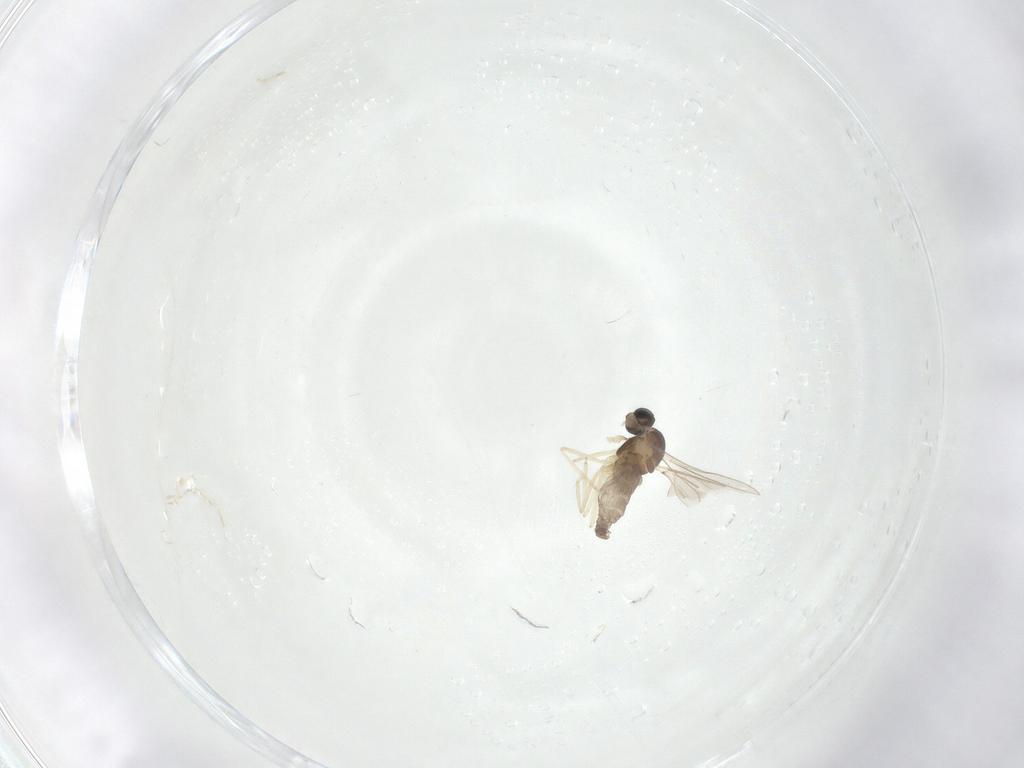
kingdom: Animalia
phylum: Arthropoda
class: Insecta
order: Diptera
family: Cecidomyiidae
